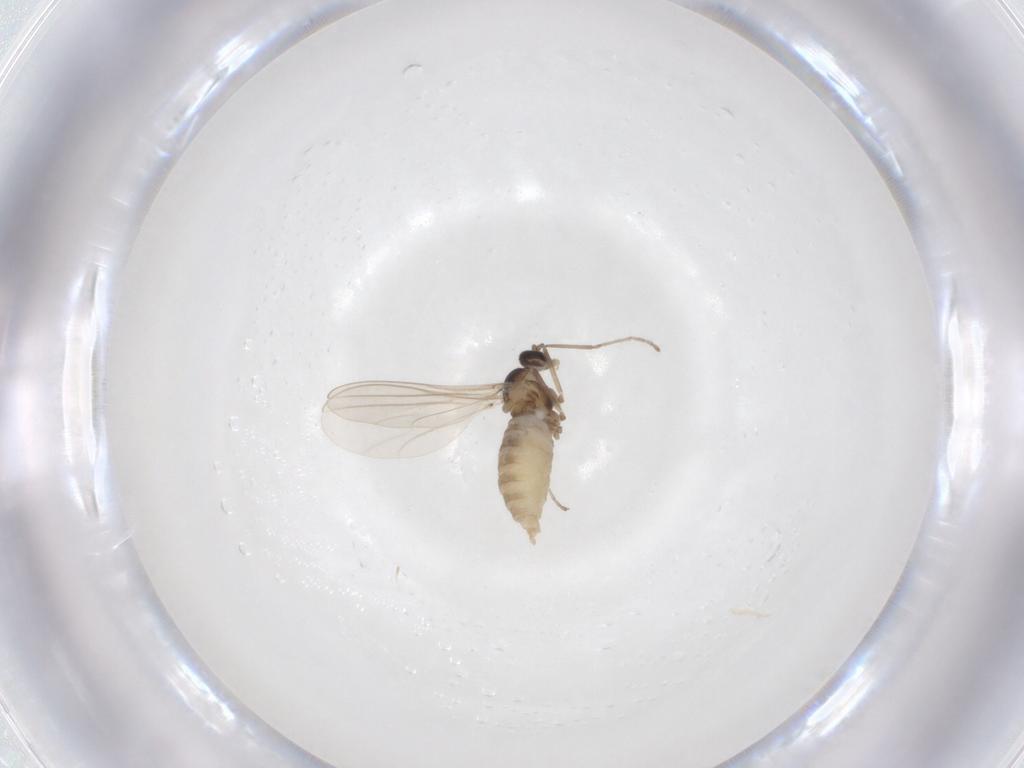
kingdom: Animalia
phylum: Arthropoda
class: Insecta
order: Diptera
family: Cecidomyiidae
